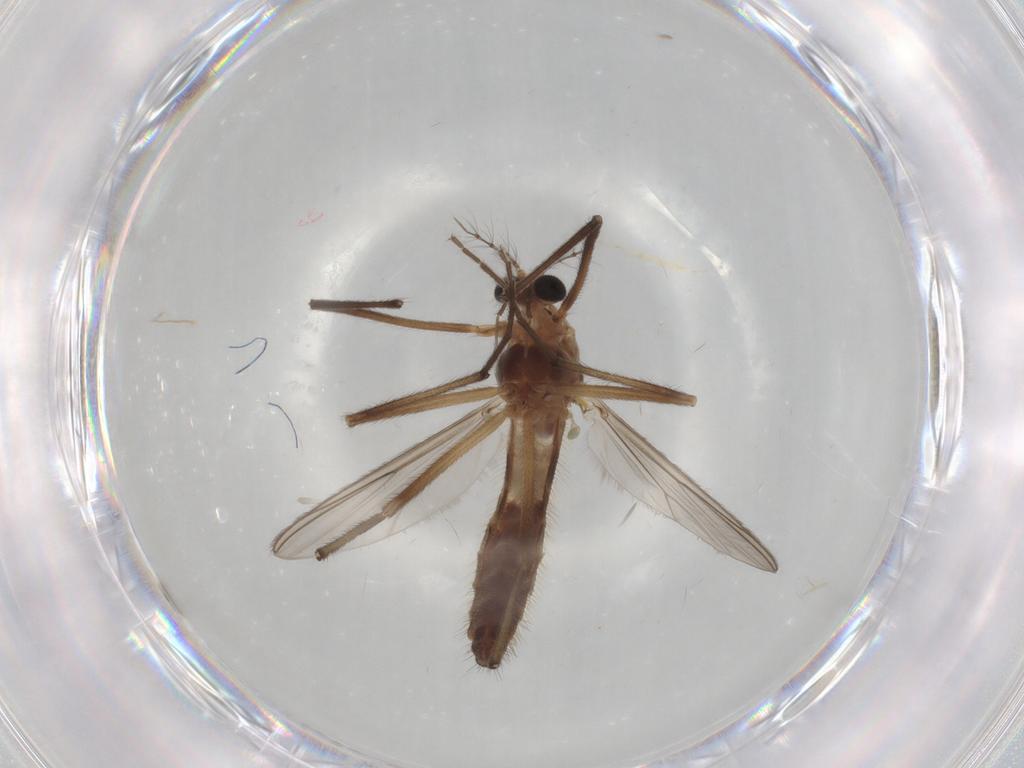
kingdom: Animalia
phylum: Arthropoda
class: Insecta
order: Diptera
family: Chironomidae
